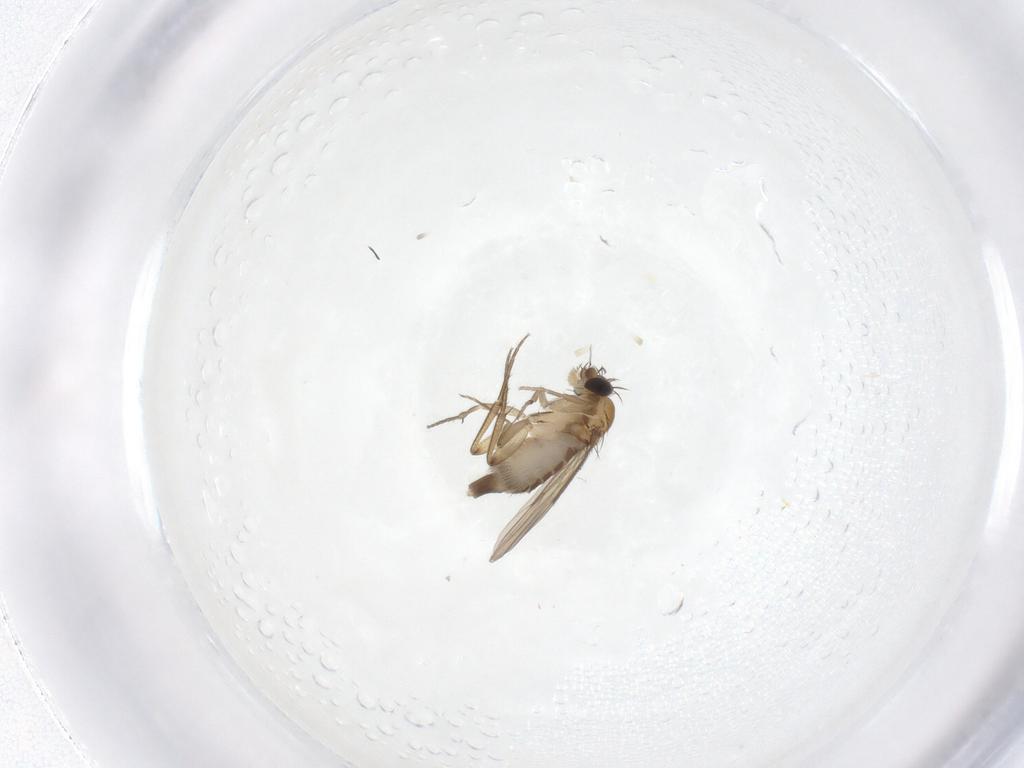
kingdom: Animalia
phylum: Arthropoda
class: Insecta
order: Diptera
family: Phoridae
